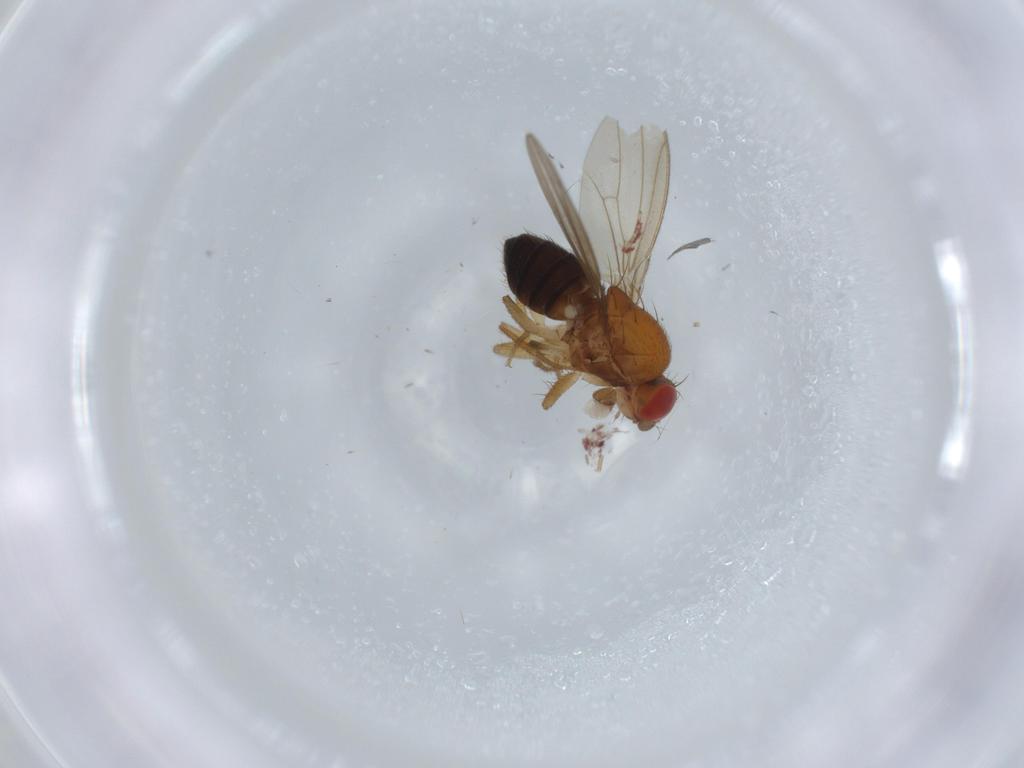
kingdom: Animalia
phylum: Arthropoda
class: Insecta
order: Diptera
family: Drosophilidae
